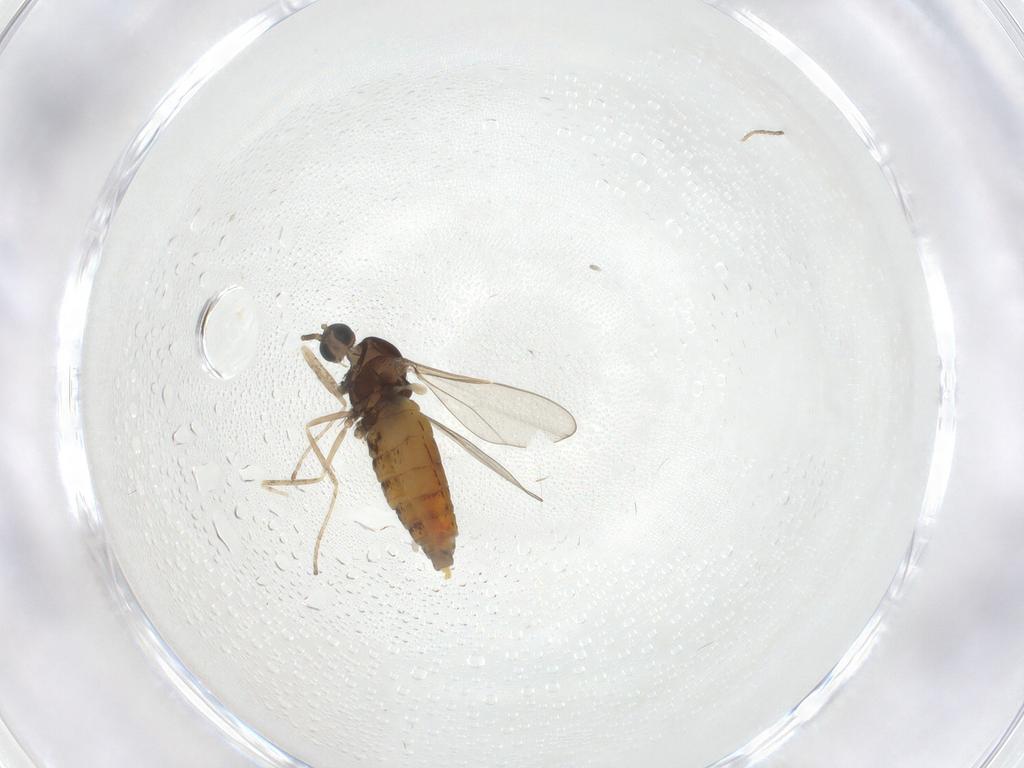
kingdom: Animalia
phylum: Arthropoda
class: Insecta
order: Diptera
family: Cecidomyiidae
